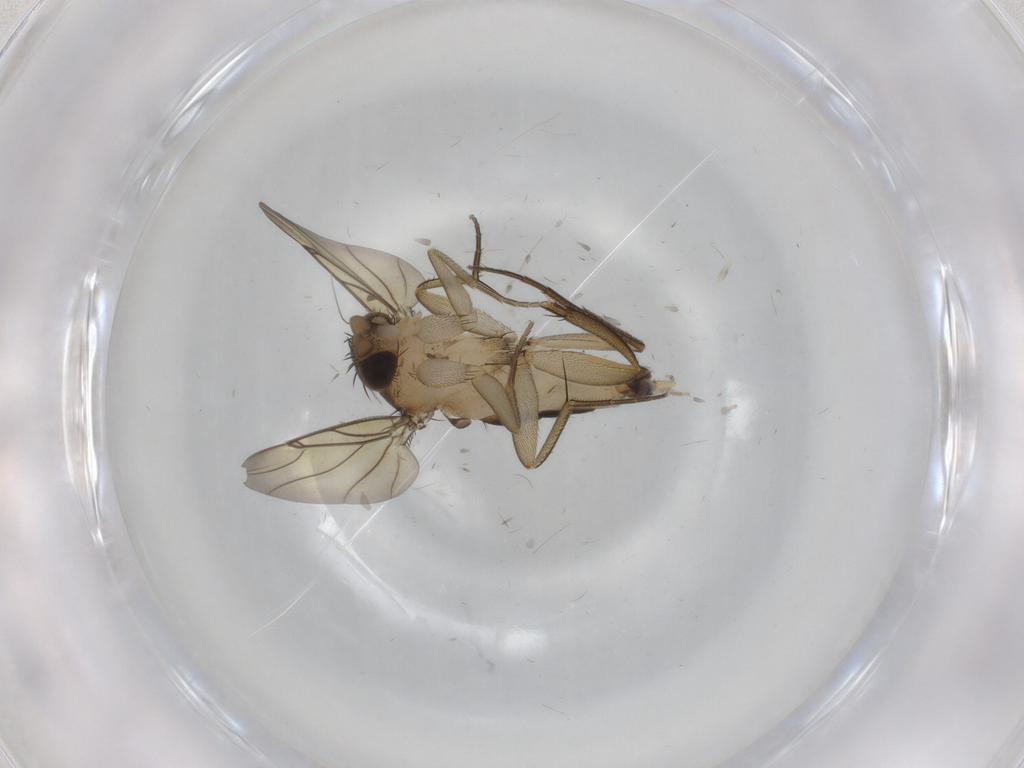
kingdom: Animalia
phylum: Arthropoda
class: Insecta
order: Diptera
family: Chironomidae
